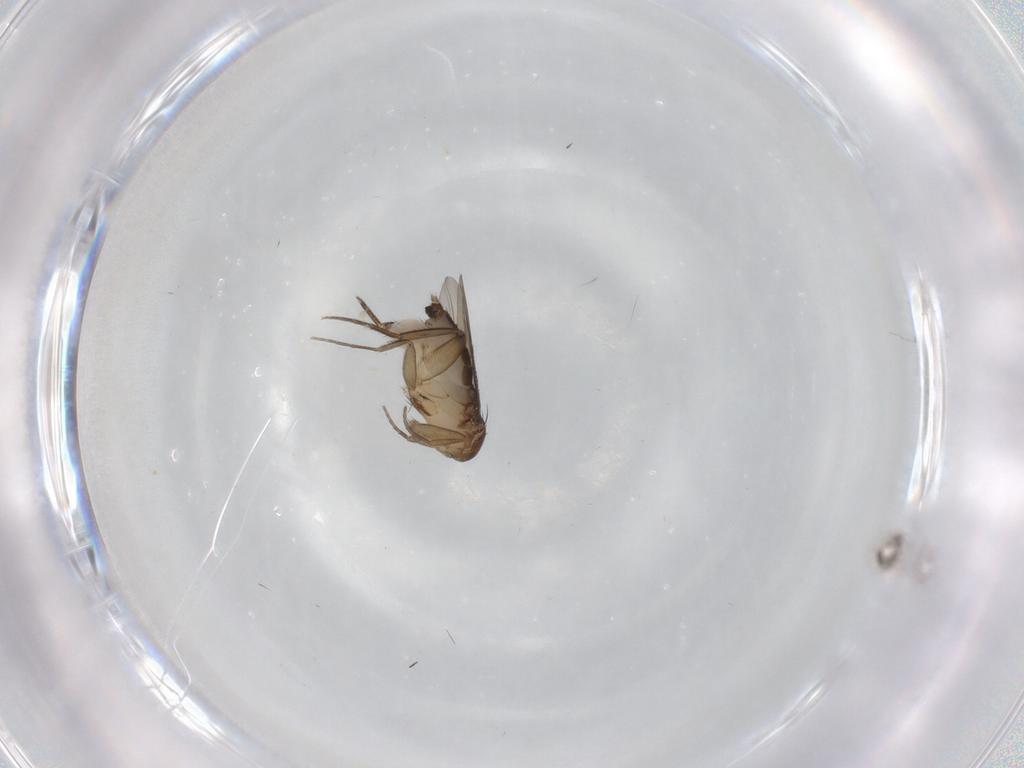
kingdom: Animalia
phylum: Arthropoda
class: Insecta
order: Diptera
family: Phoridae
